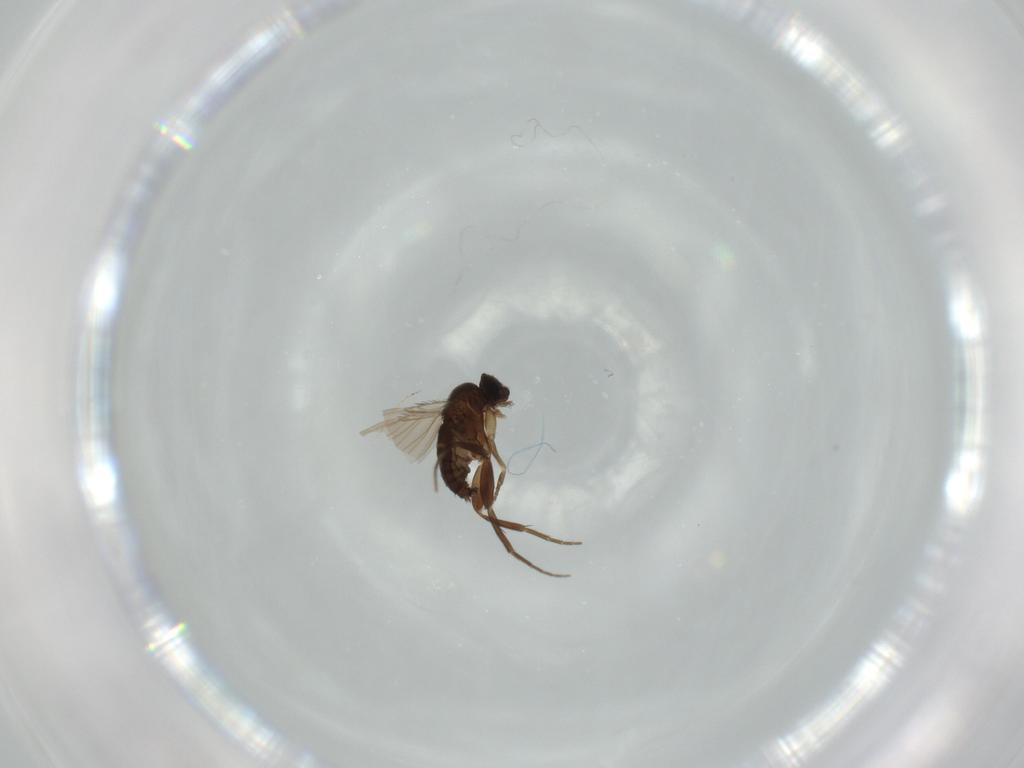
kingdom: Animalia
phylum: Arthropoda
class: Insecta
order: Diptera
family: Phoridae
